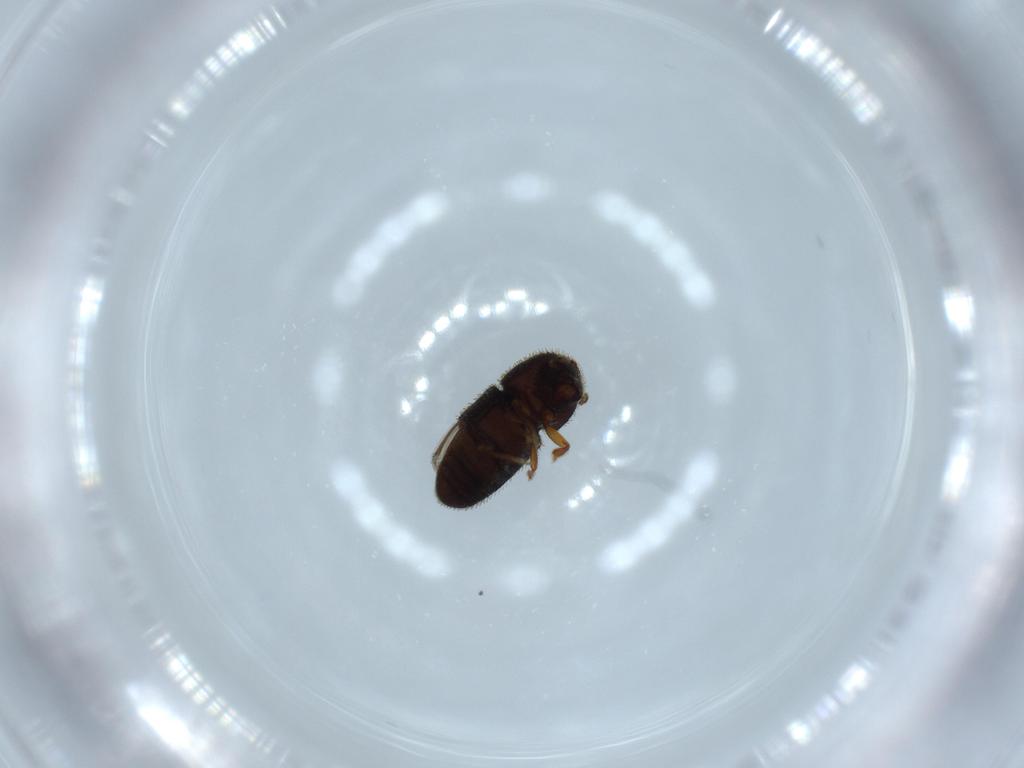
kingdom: Animalia
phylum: Arthropoda
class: Insecta
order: Coleoptera
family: Curculionidae
